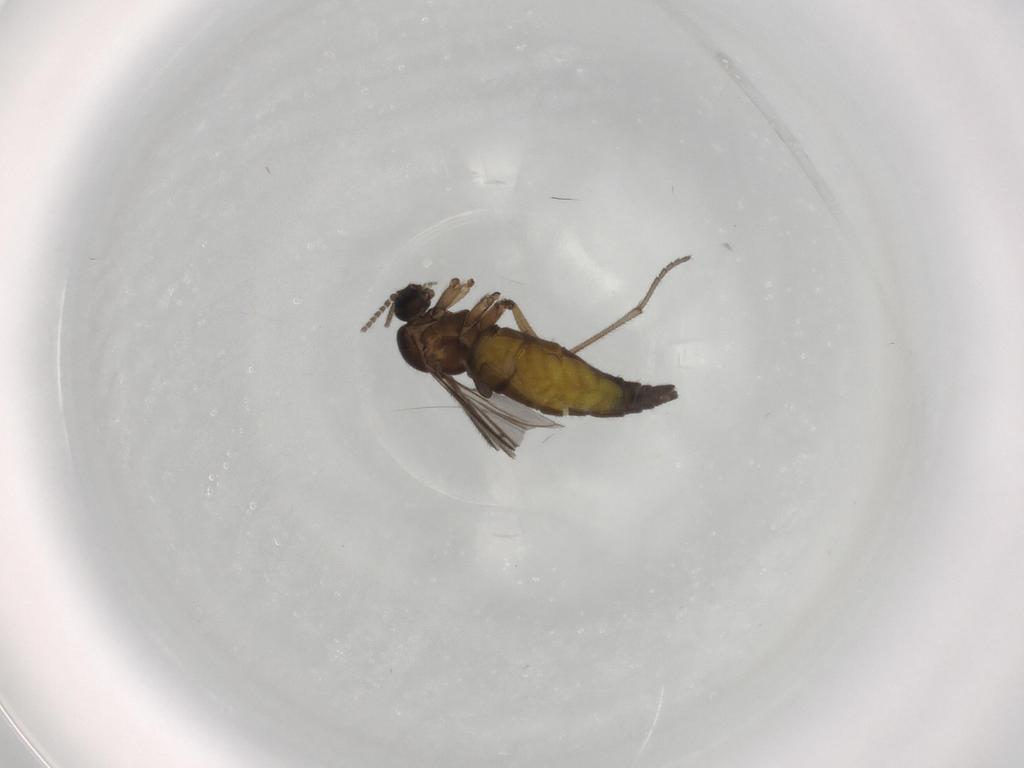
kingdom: Animalia
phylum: Arthropoda
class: Insecta
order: Diptera
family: Sciaridae
